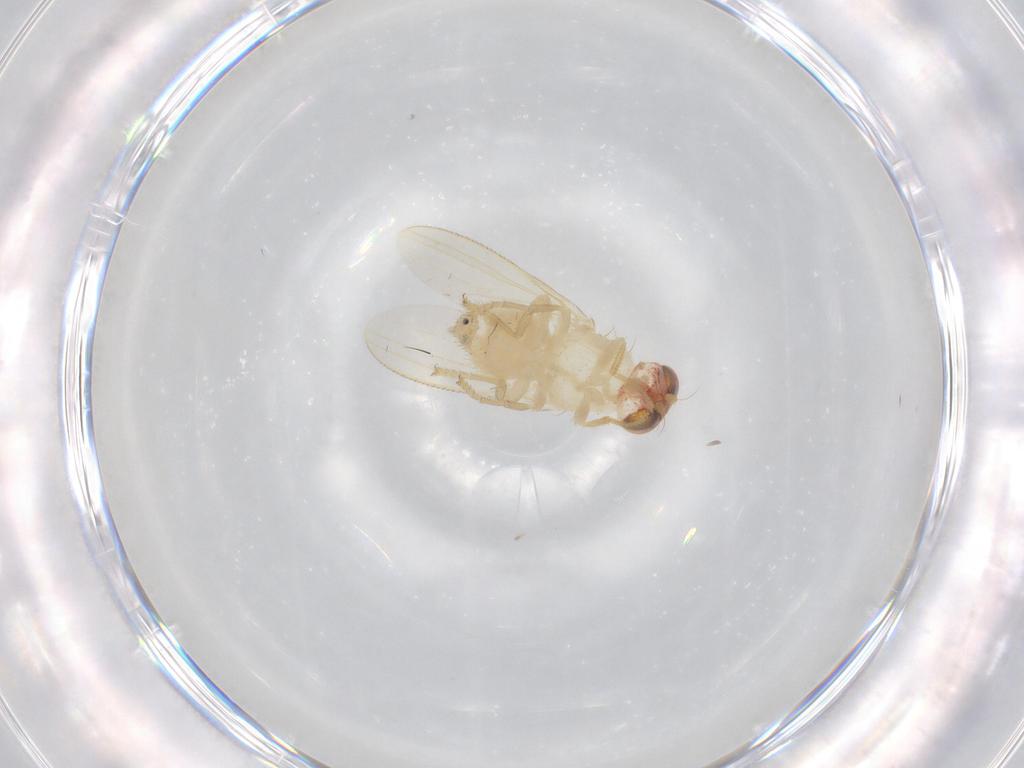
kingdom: Animalia
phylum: Arthropoda
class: Insecta
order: Diptera
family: Chyromyidae
